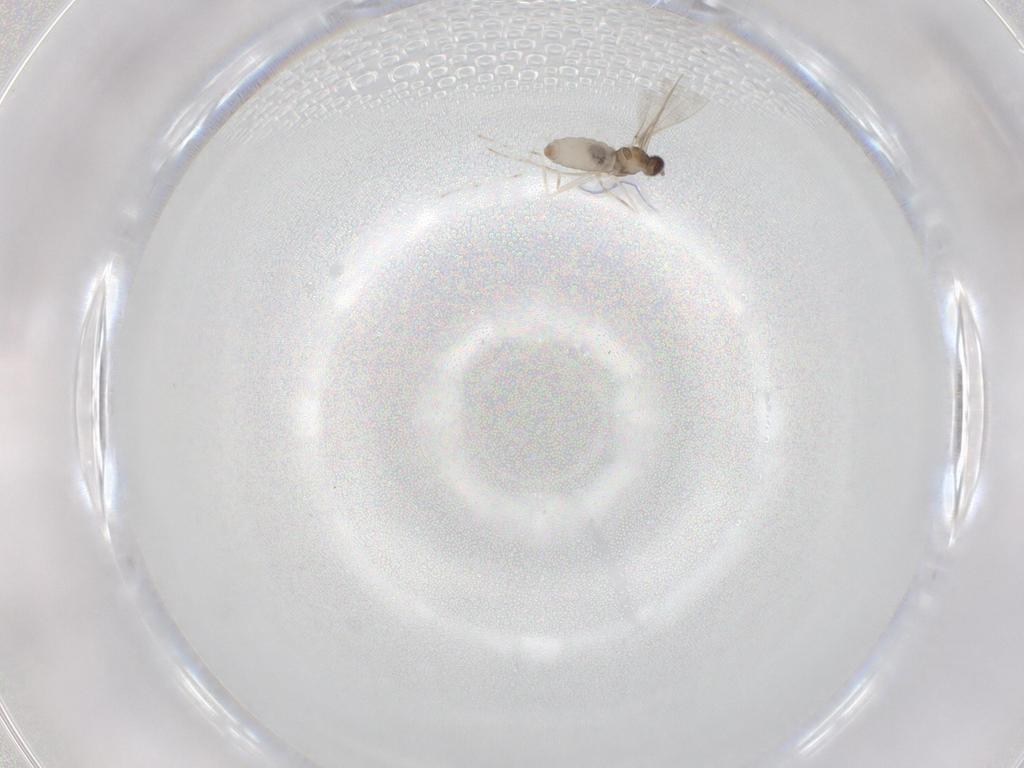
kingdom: Animalia
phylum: Arthropoda
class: Insecta
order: Diptera
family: Cecidomyiidae
